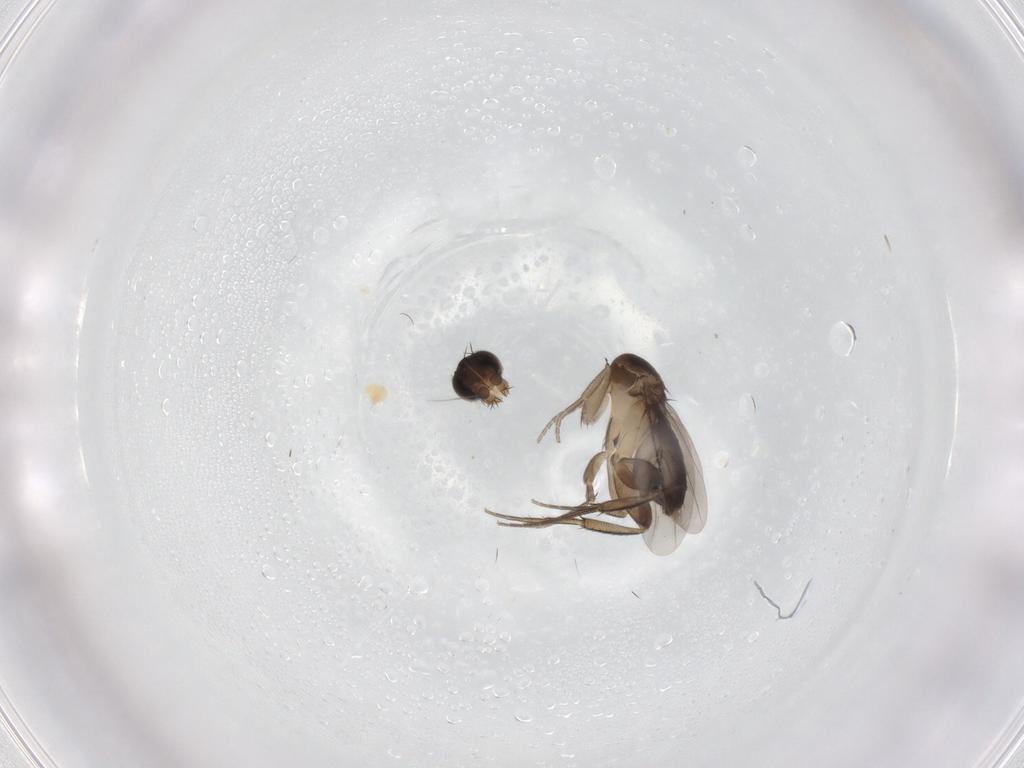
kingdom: Animalia
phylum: Arthropoda
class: Insecta
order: Diptera
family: Phoridae
